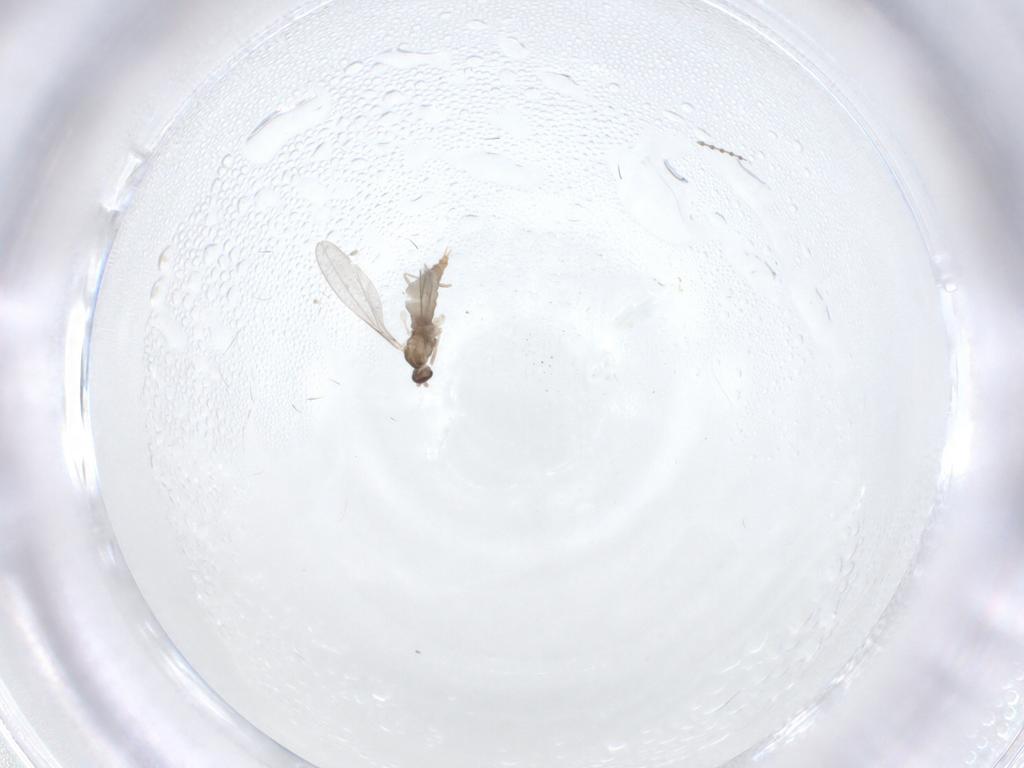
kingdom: Animalia
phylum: Arthropoda
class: Insecta
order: Diptera
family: Cecidomyiidae
